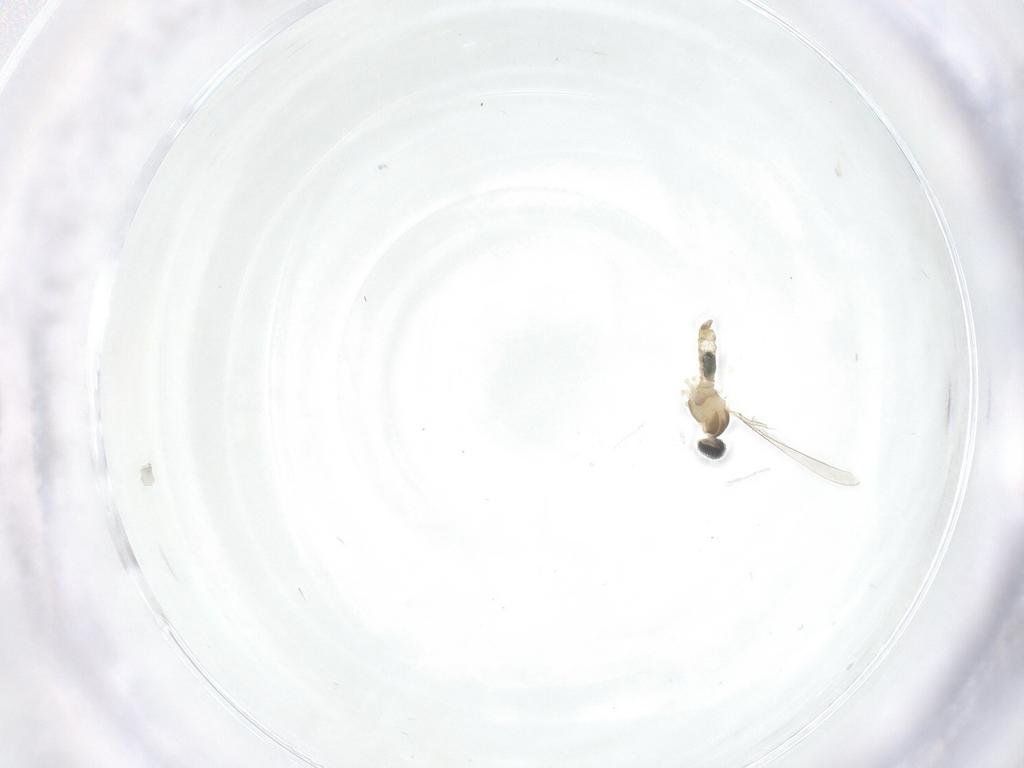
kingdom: Animalia
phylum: Arthropoda
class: Insecta
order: Diptera
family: Cecidomyiidae
